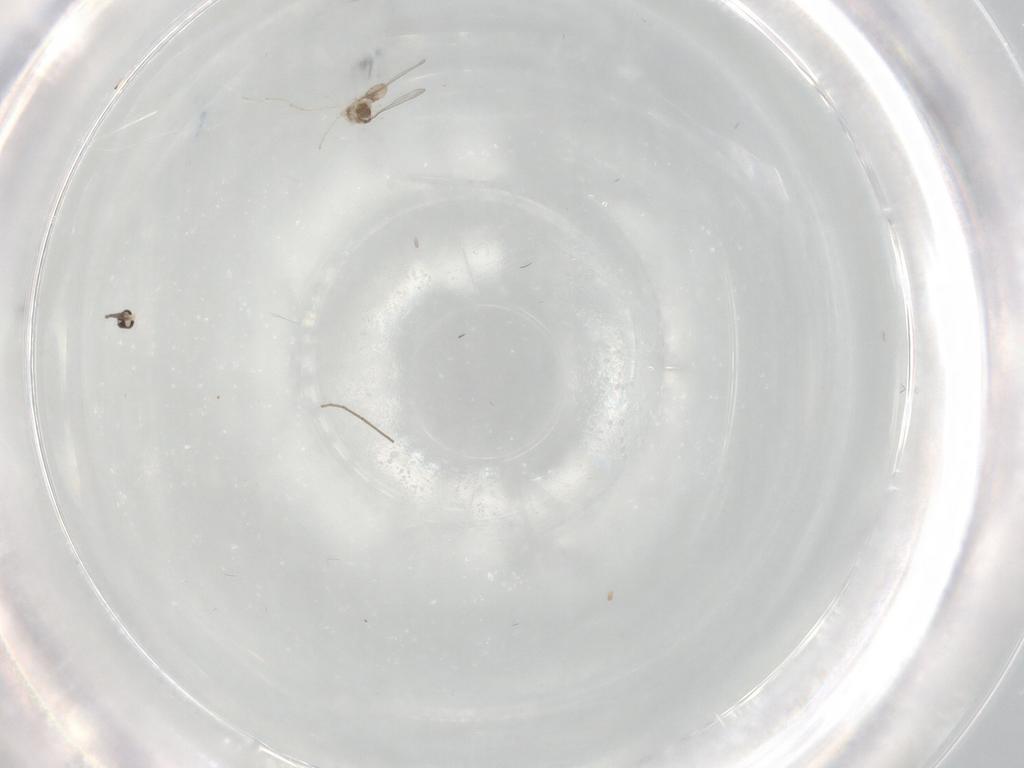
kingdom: Animalia
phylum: Arthropoda
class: Insecta
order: Diptera
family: Cecidomyiidae
